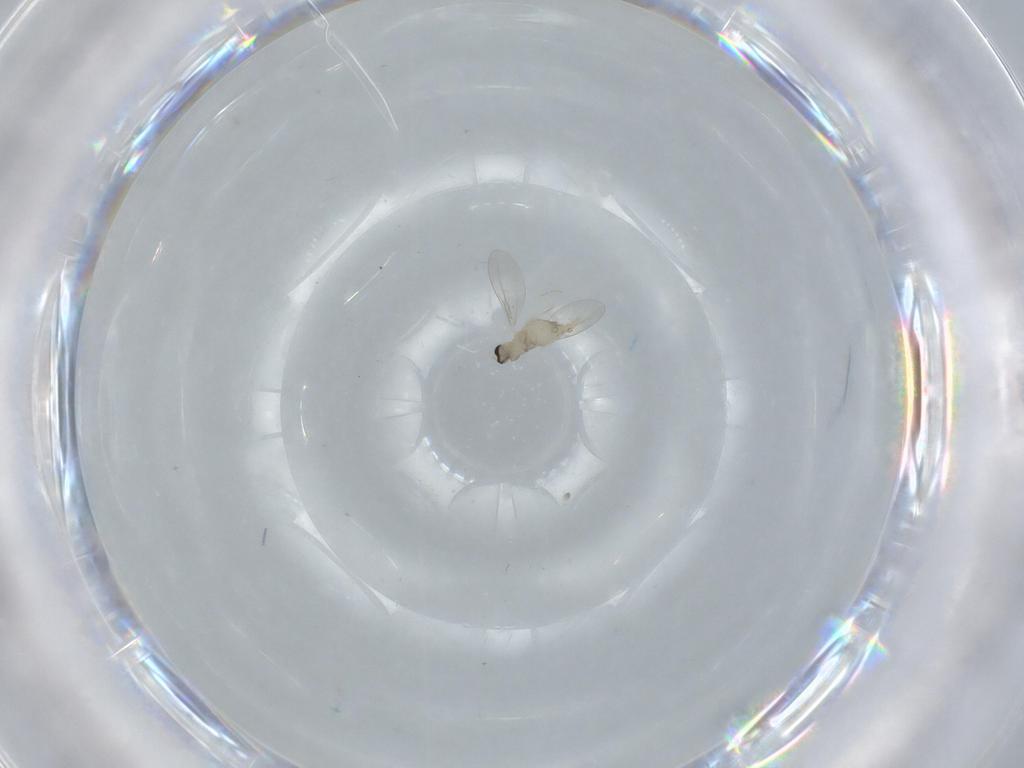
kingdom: Animalia
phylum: Arthropoda
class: Insecta
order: Diptera
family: Cecidomyiidae
